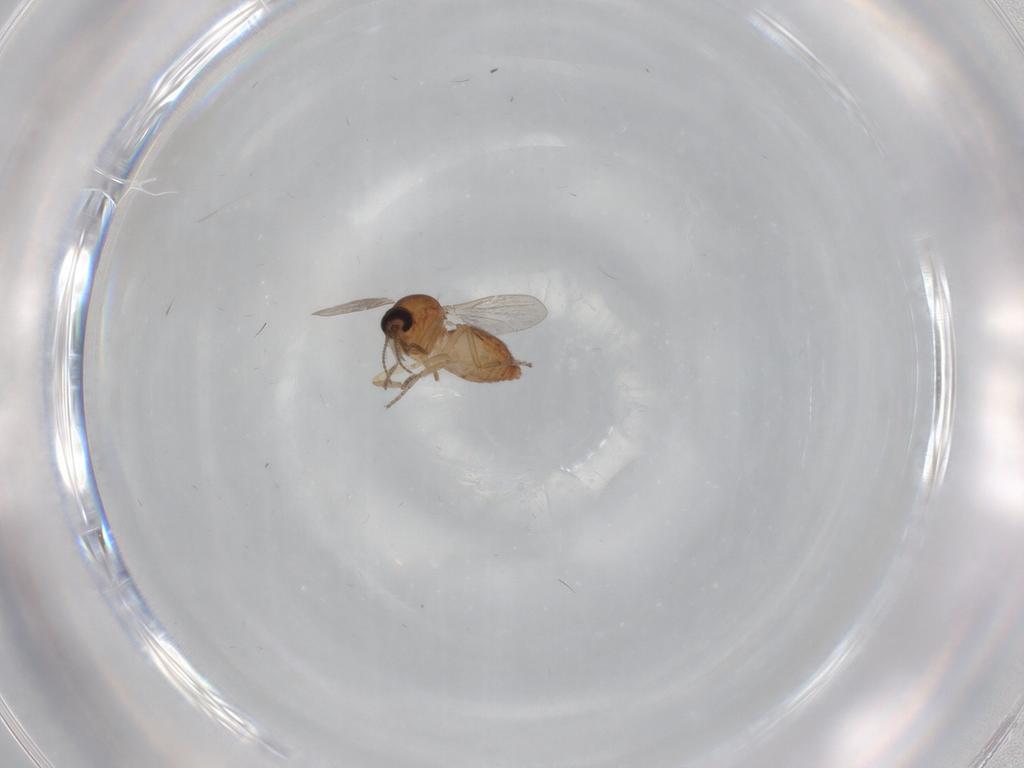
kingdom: Animalia
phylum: Arthropoda
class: Insecta
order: Diptera
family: Ceratopogonidae
